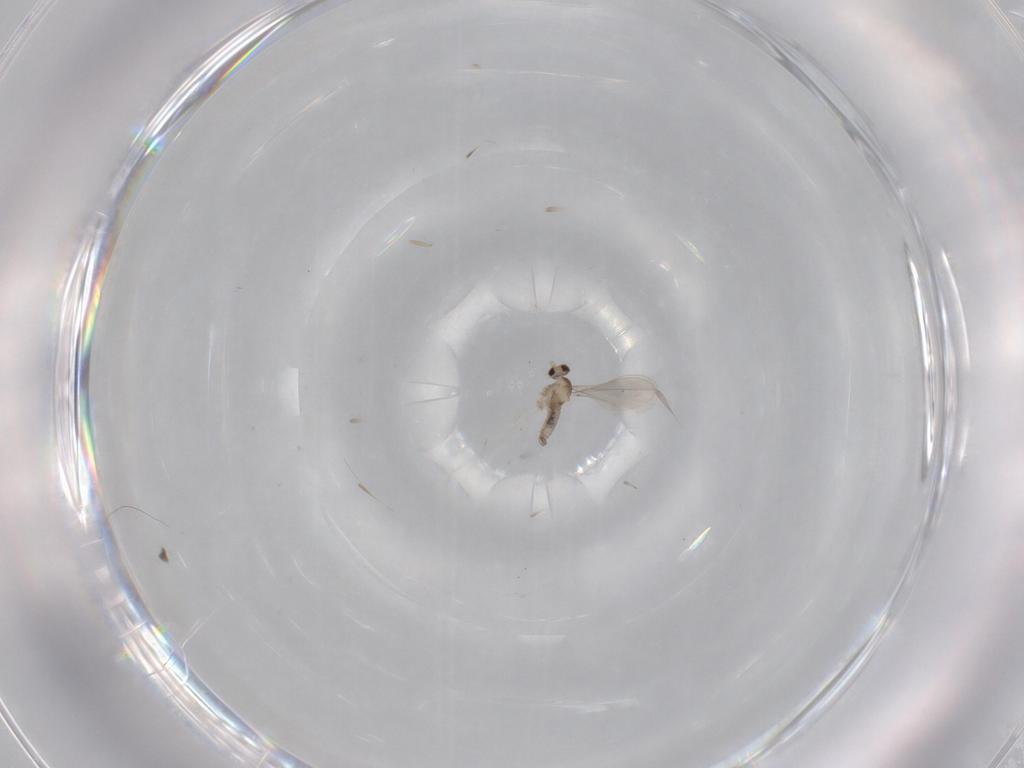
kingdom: Animalia
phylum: Arthropoda
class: Insecta
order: Diptera
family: Cecidomyiidae
